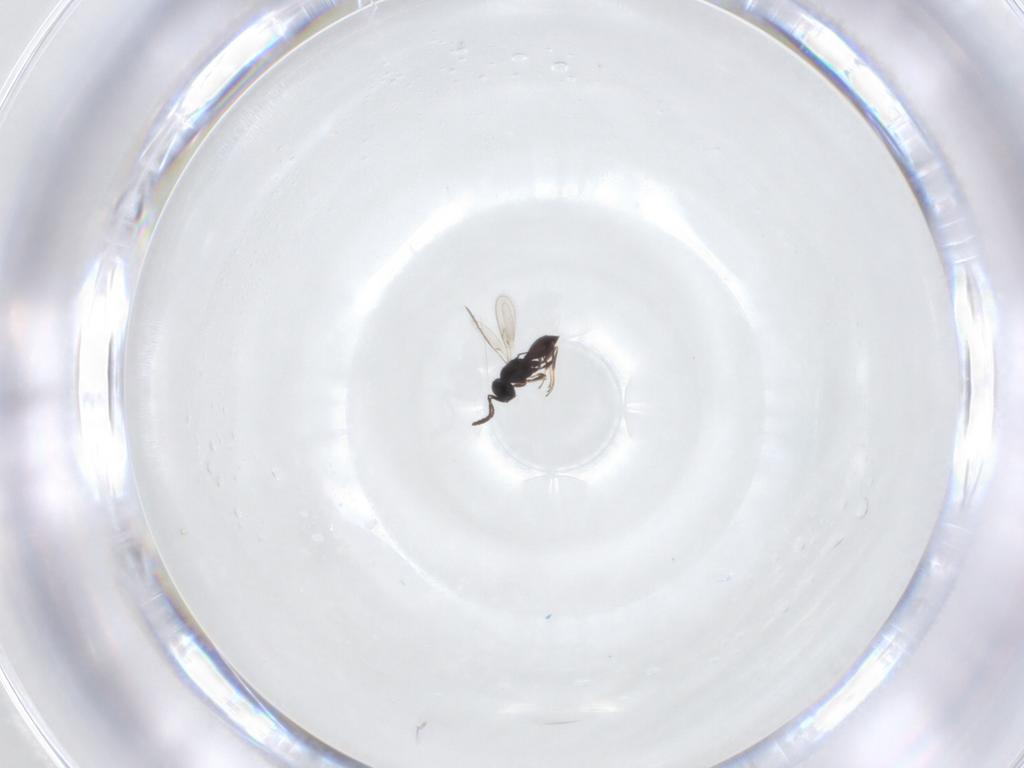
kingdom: Animalia
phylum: Arthropoda
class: Insecta
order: Hymenoptera
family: Scelionidae
